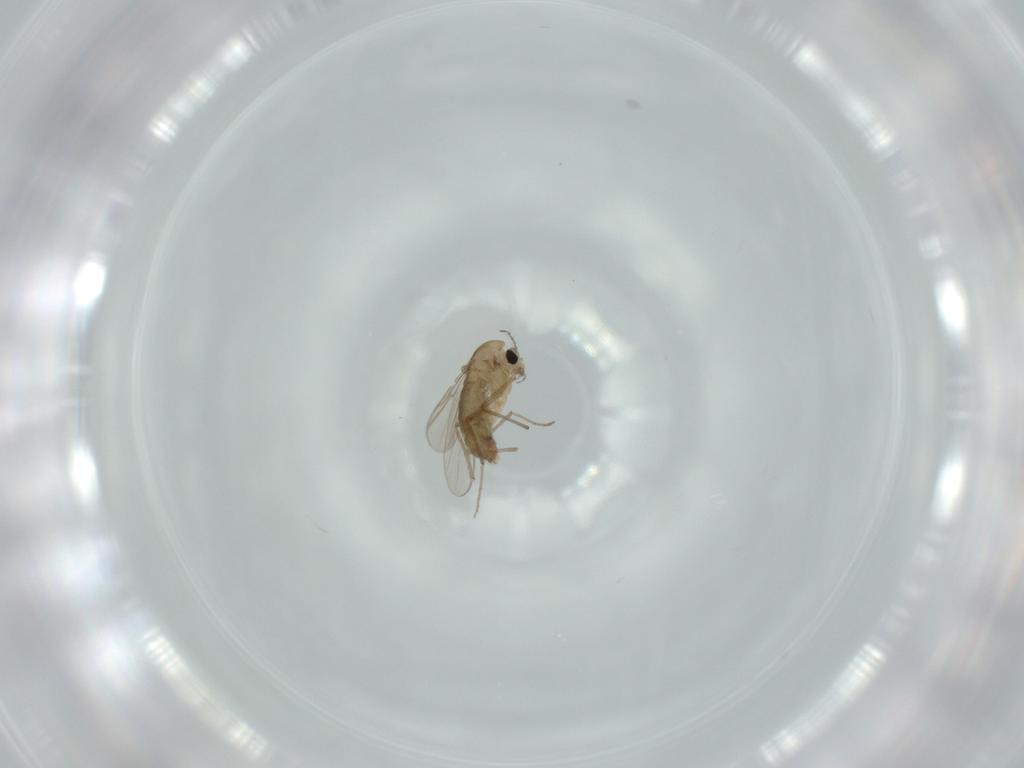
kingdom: Animalia
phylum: Arthropoda
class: Insecta
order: Diptera
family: Chironomidae
